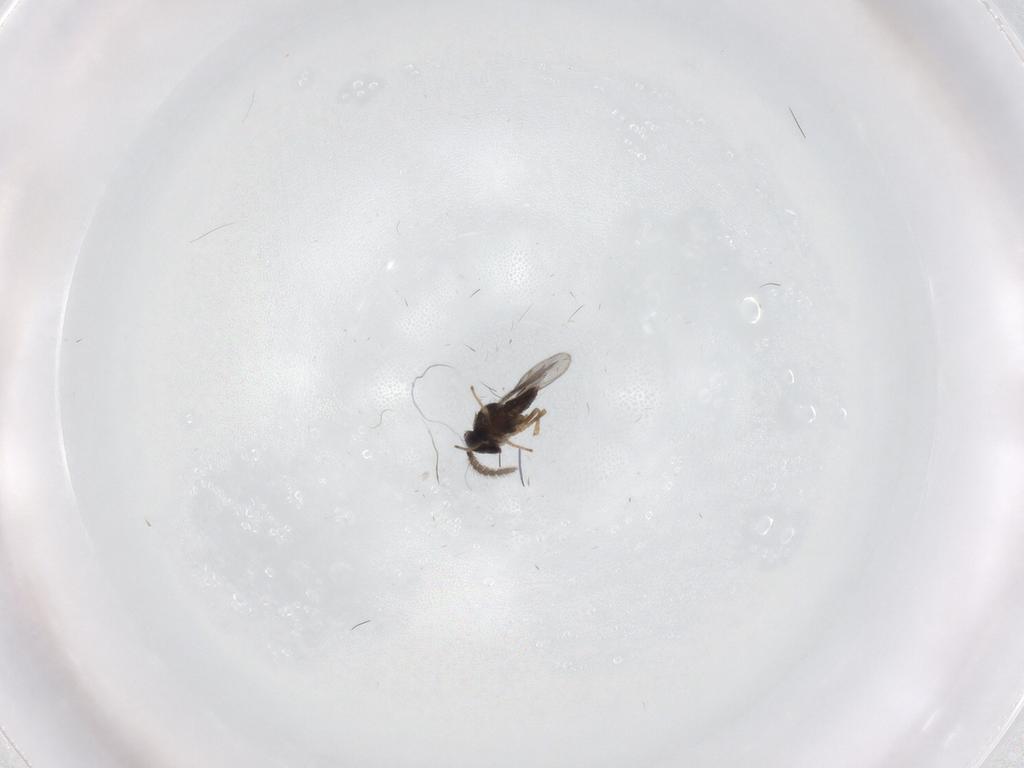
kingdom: Animalia
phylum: Arthropoda
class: Insecta
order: Hymenoptera
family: Encyrtidae
